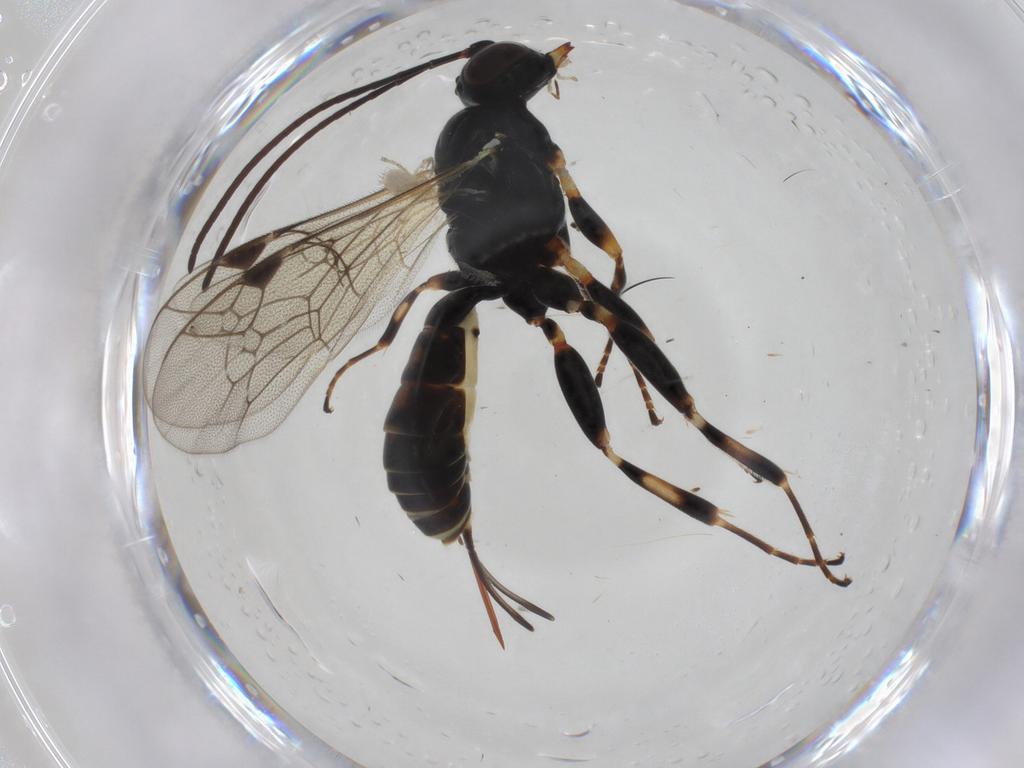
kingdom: Animalia
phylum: Arthropoda
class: Insecta
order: Hymenoptera
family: Ichneumonidae
